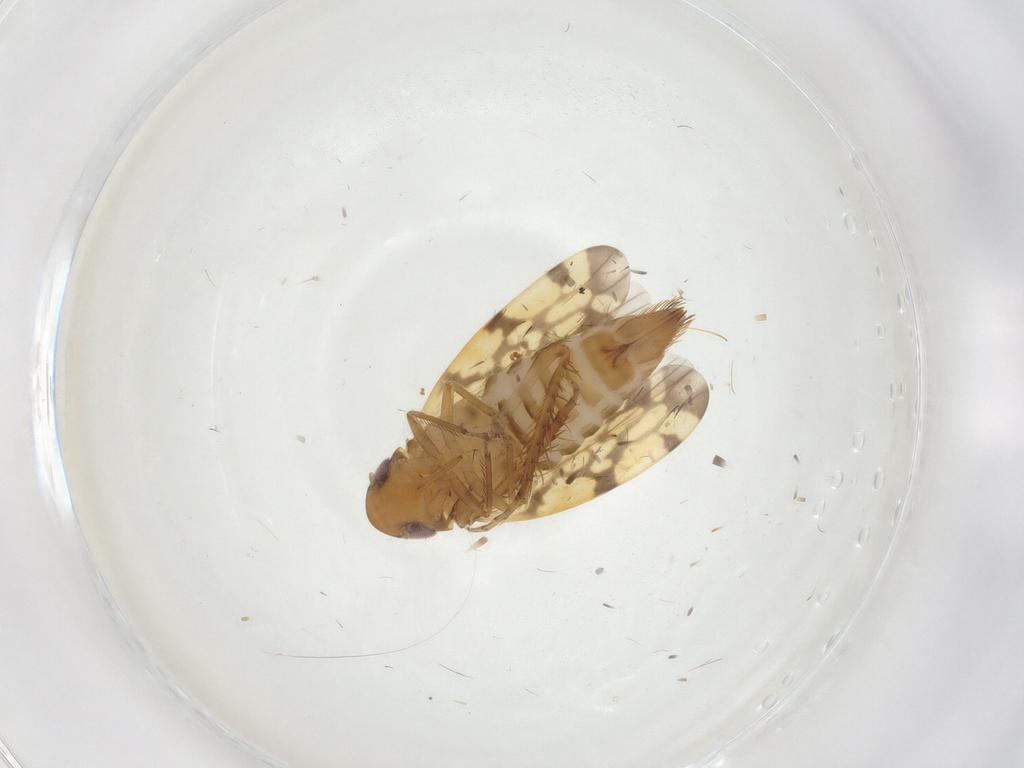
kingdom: Animalia
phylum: Arthropoda
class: Insecta
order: Hemiptera
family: Cicadellidae
